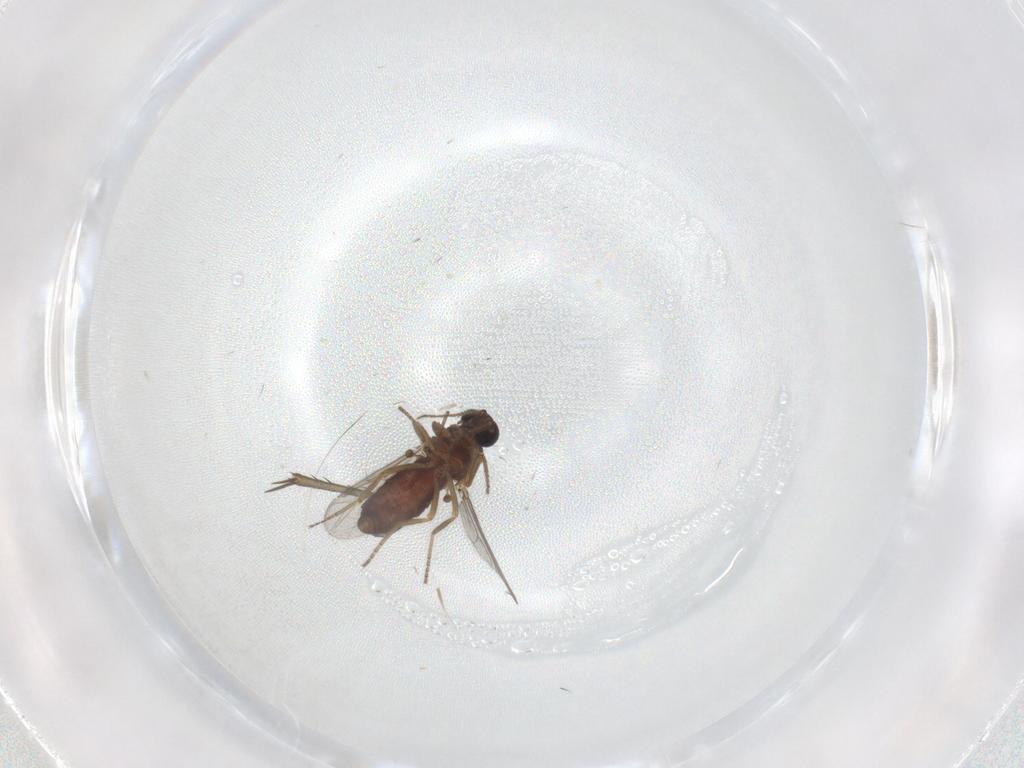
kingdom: Animalia
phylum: Arthropoda
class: Insecta
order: Diptera
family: Ceratopogonidae
